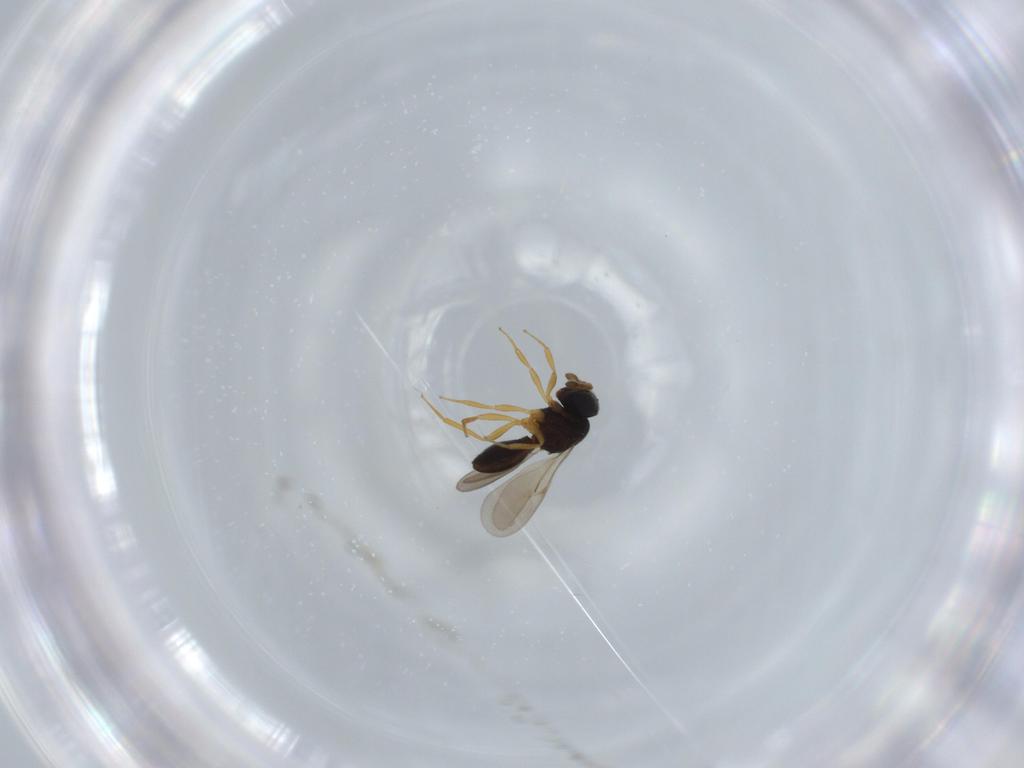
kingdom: Animalia
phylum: Arthropoda
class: Insecta
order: Hymenoptera
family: Scelionidae
